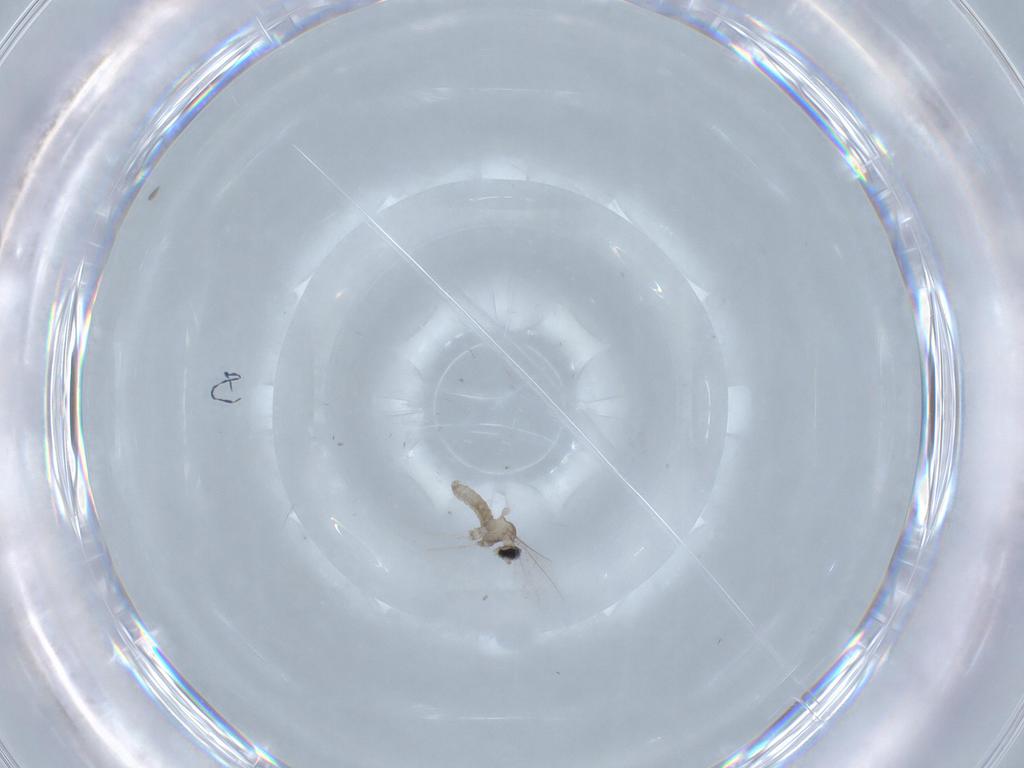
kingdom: Animalia
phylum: Arthropoda
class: Insecta
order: Diptera
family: Cecidomyiidae
